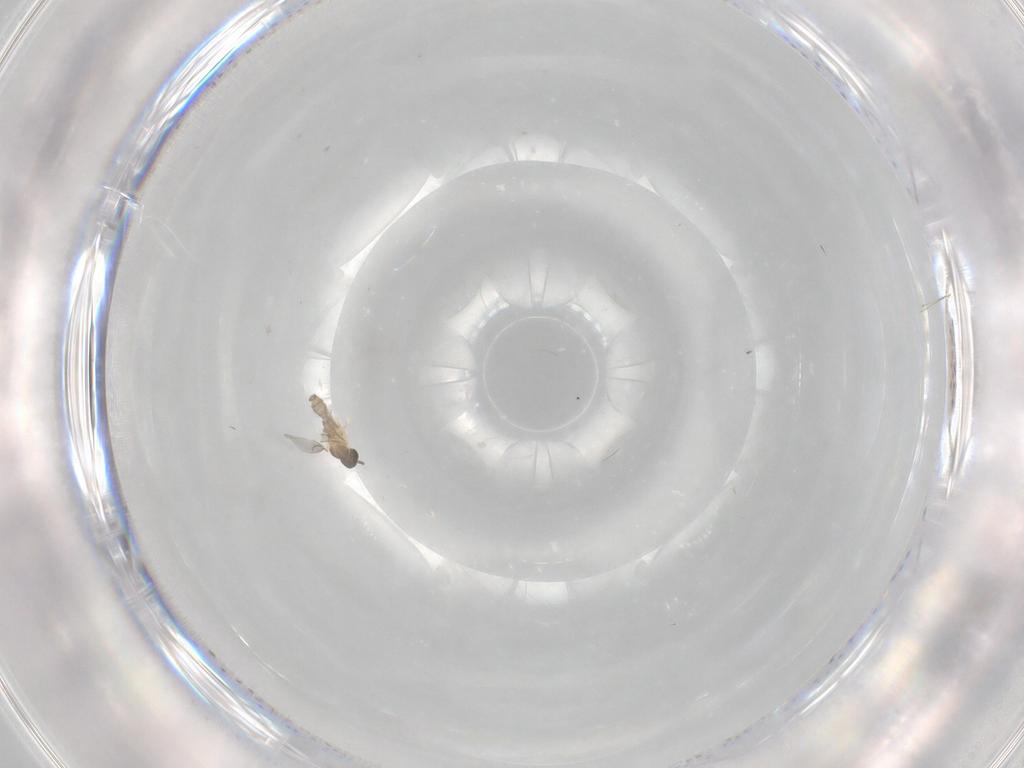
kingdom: Animalia
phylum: Arthropoda
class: Insecta
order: Diptera
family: Cecidomyiidae
